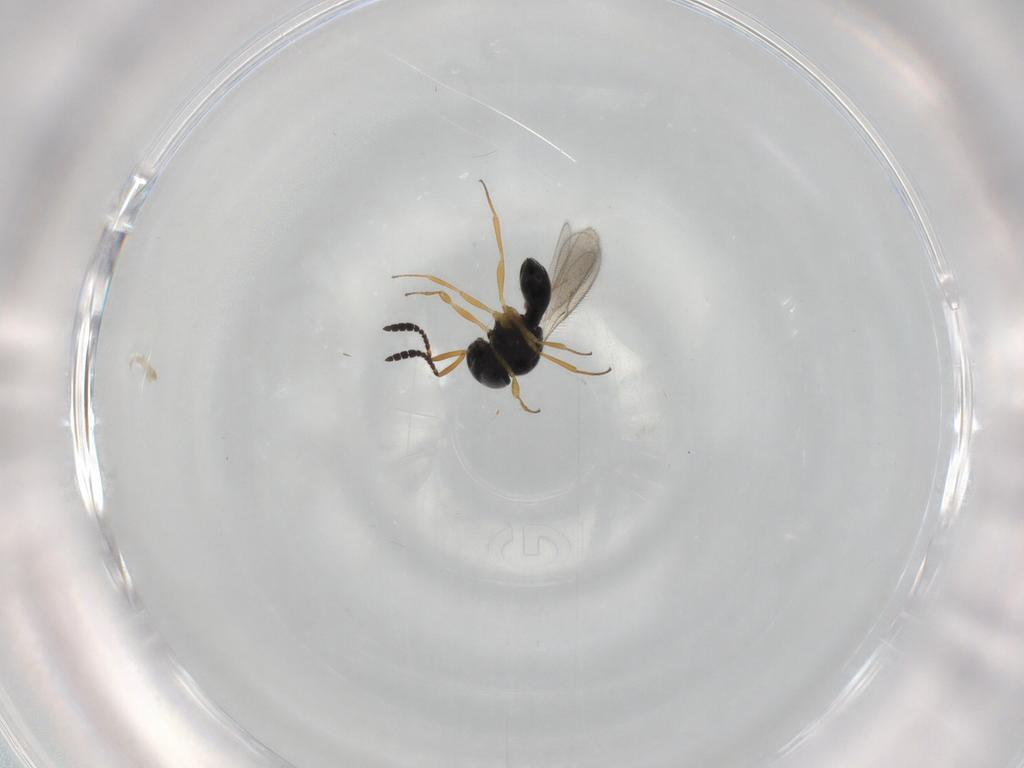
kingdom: Animalia
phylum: Arthropoda
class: Insecta
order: Hymenoptera
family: Scelionidae
